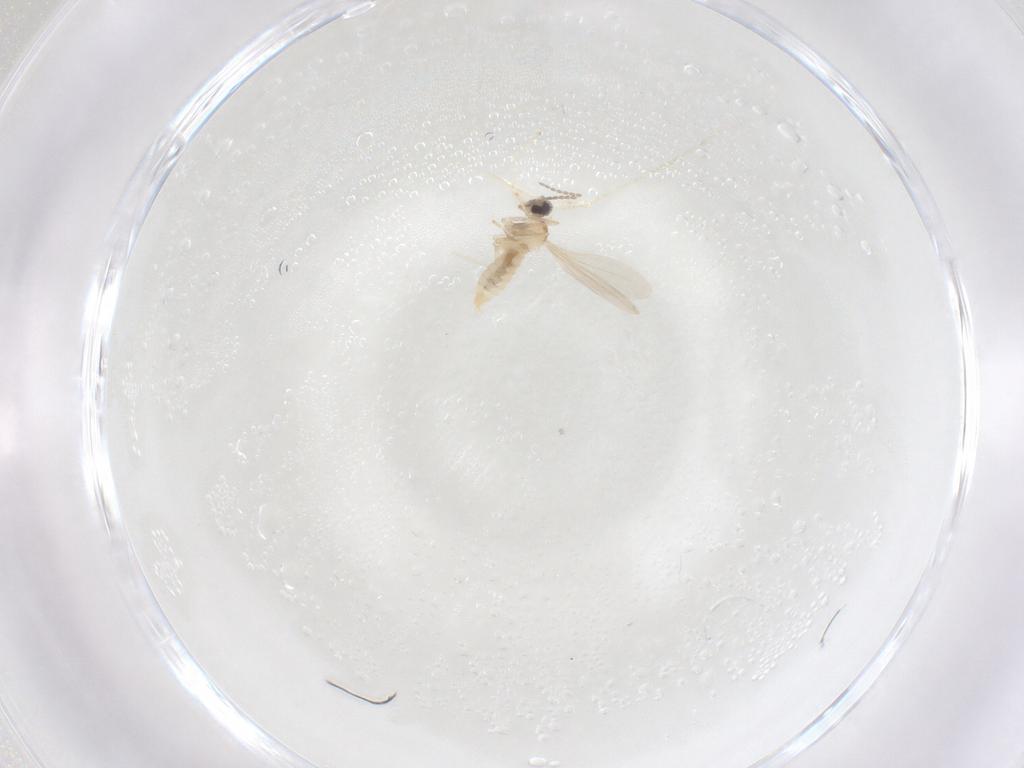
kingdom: Animalia
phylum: Arthropoda
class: Insecta
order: Diptera
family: Cecidomyiidae
